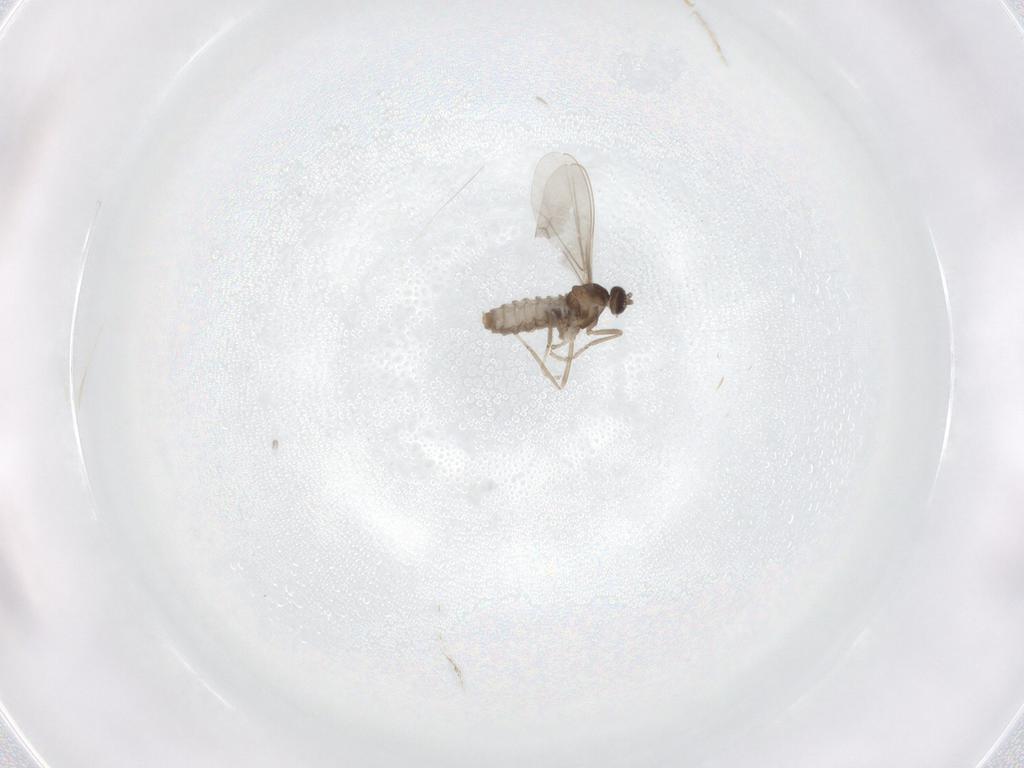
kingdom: Animalia
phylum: Arthropoda
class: Insecta
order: Diptera
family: Cecidomyiidae
